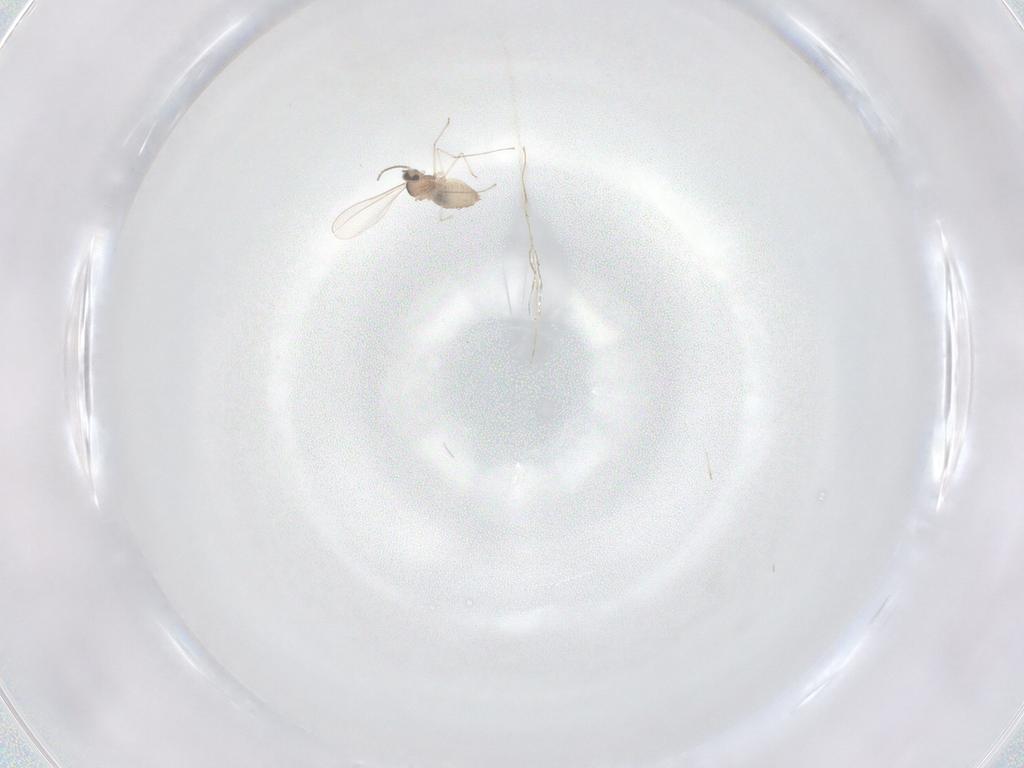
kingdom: Animalia
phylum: Arthropoda
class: Insecta
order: Diptera
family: Cecidomyiidae
